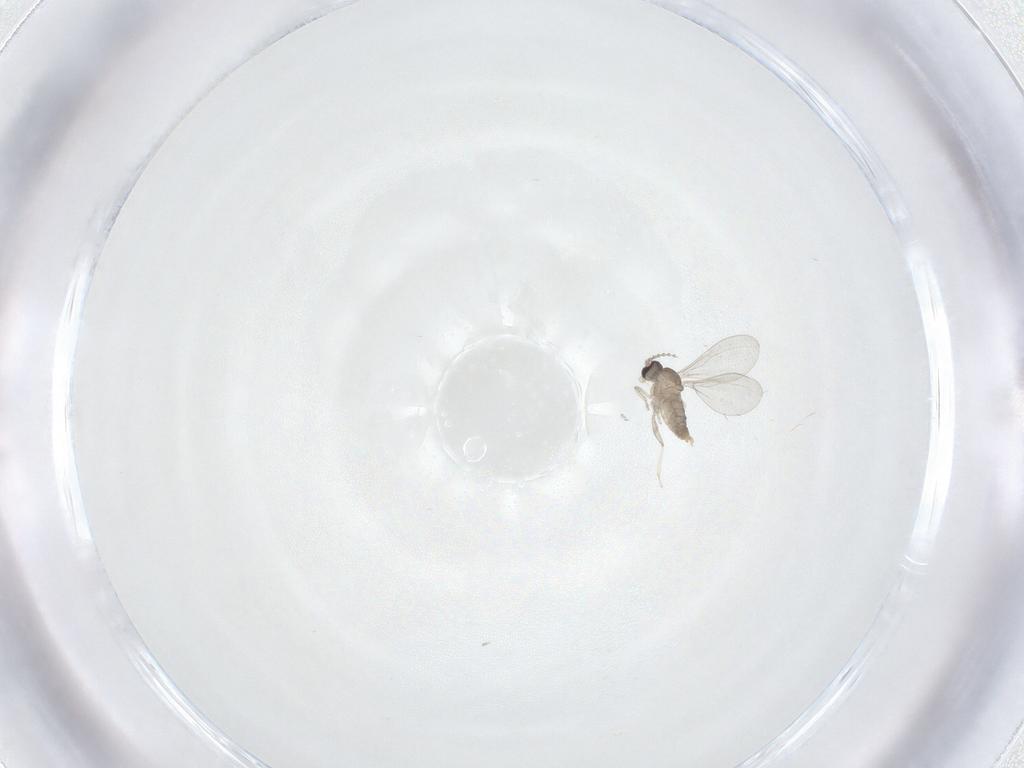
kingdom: Animalia
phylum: Arthropoda
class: Insecta
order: Diptera
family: Cecidomyiidae
